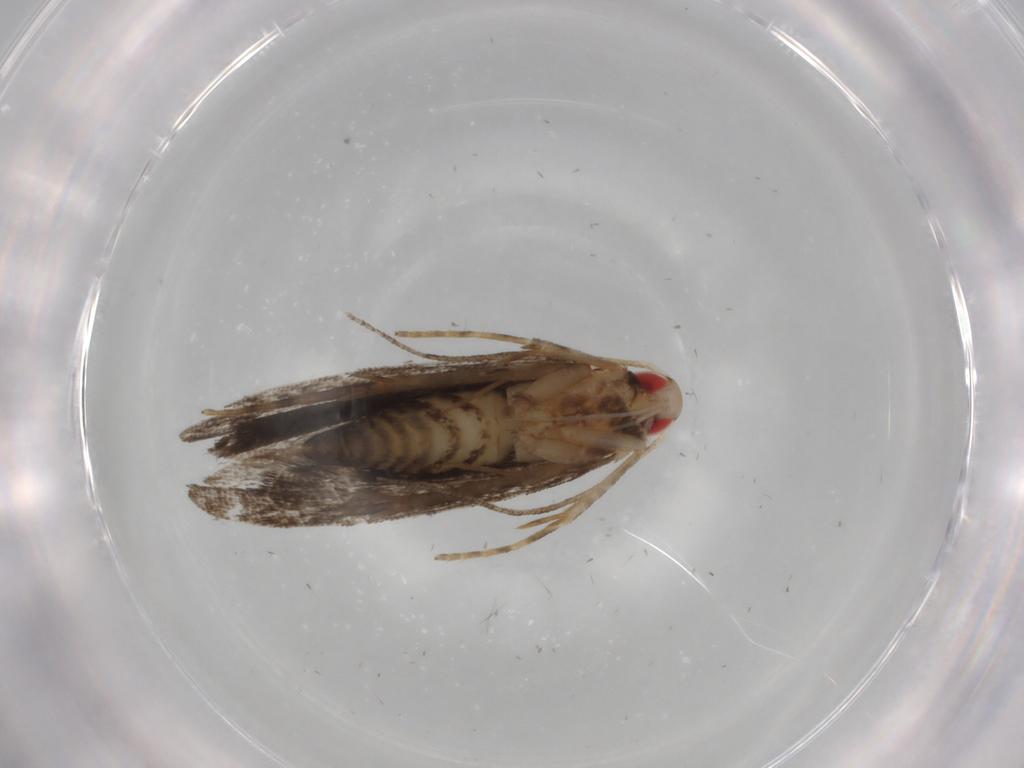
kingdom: Animalia
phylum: Arthropoda
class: Insecta
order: Lepidoptera
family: Gelechiidae
